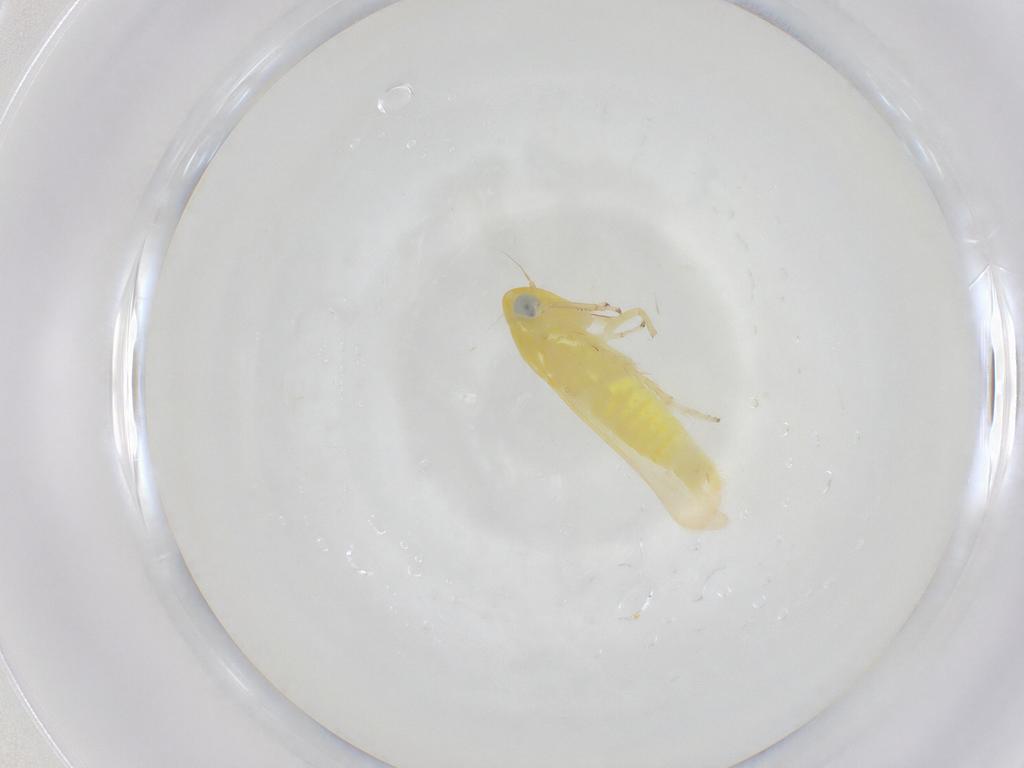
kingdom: Animalia
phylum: Arthropoda
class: Insecta
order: Hemiptera
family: Cicadellidae
